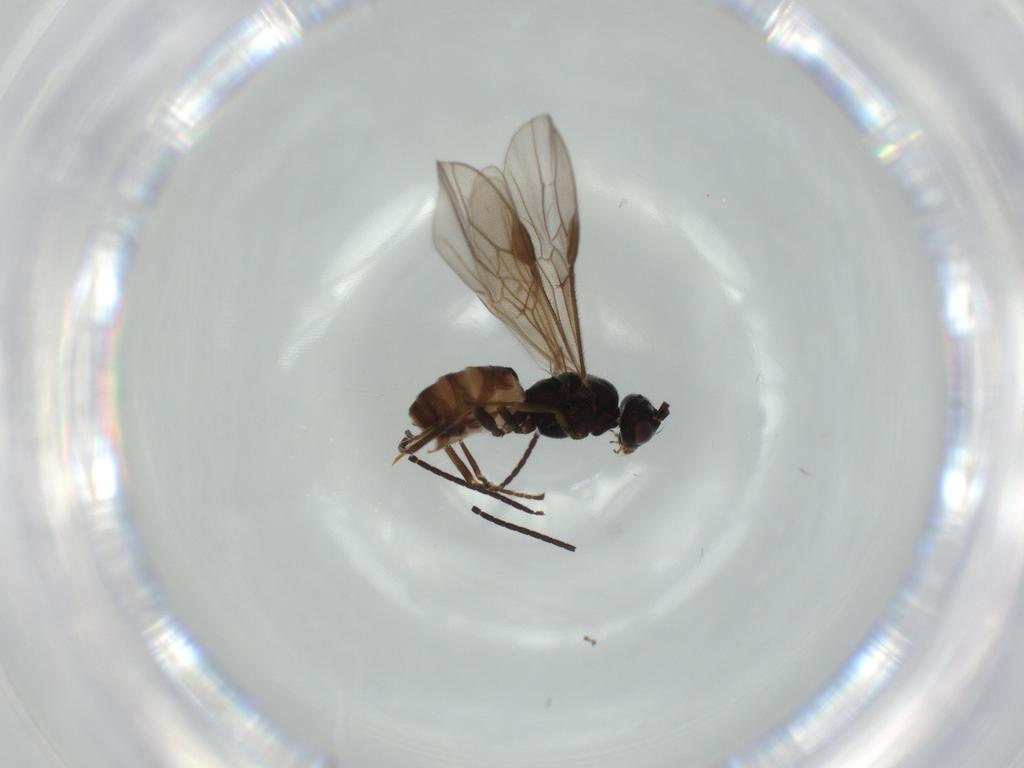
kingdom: Animalia
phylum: Arthropoda
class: Insecta
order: Hymenoptera
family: Braconidae
